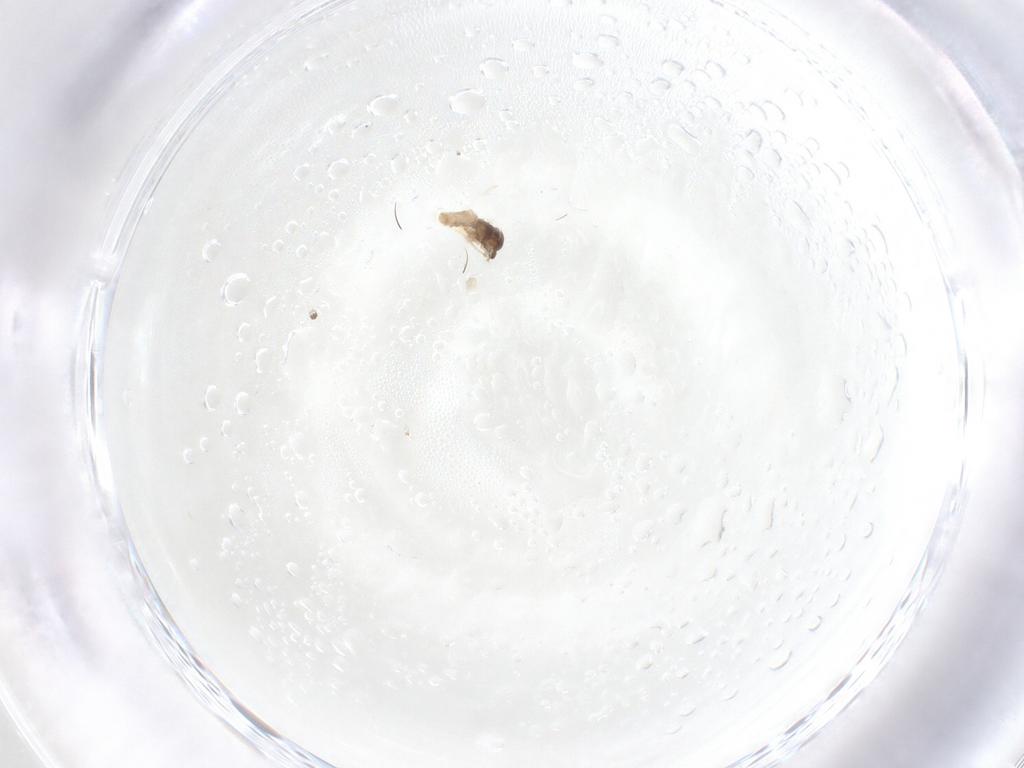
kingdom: Animalia
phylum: Arthropoda
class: Insecta
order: Diptera
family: Cecidomyiidae
